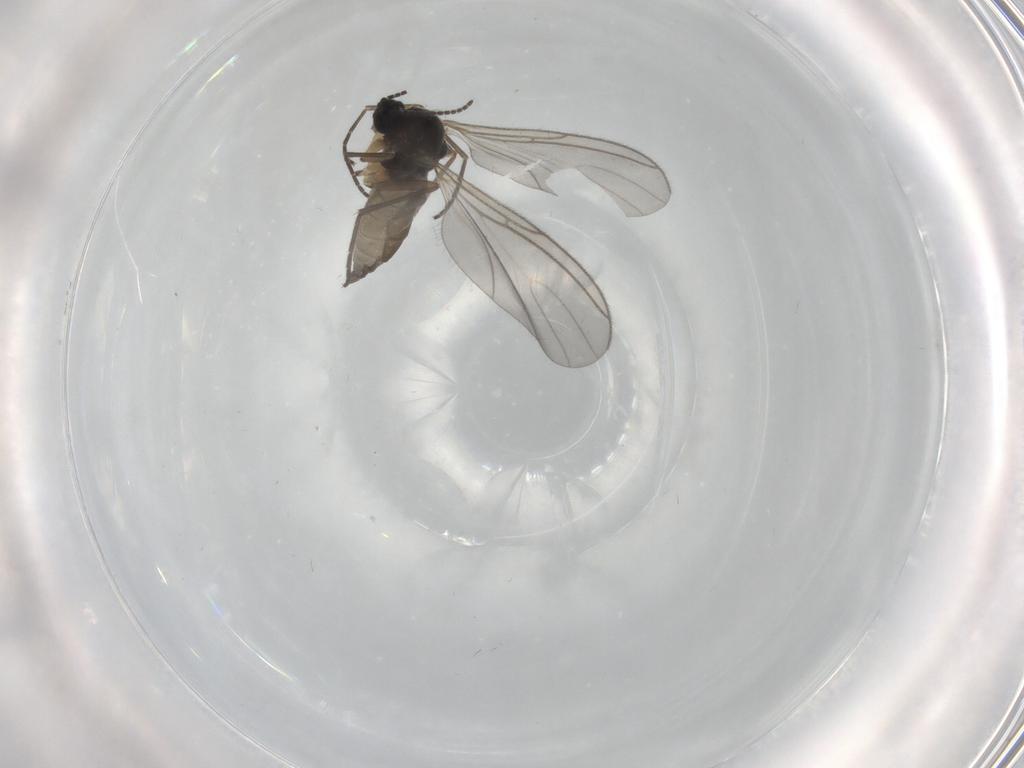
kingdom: Animalia
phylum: Arthropoda
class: Insecta
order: Diptera
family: Sciaridae
